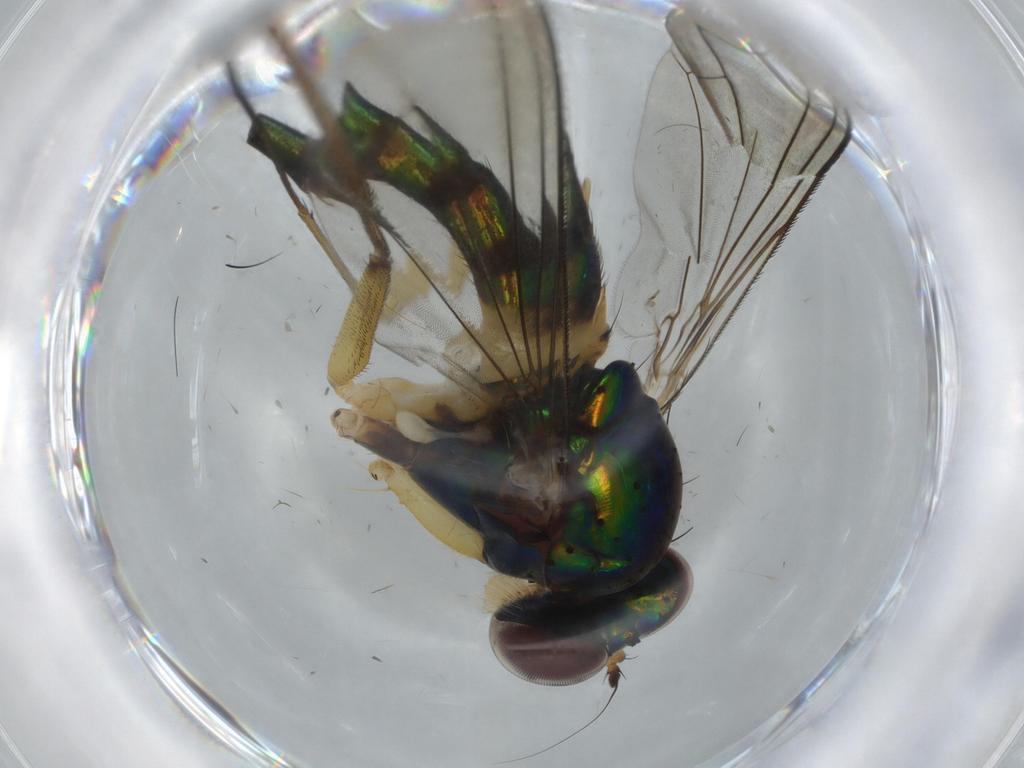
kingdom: Animalia
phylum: Arthropoda
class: Insecta
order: Diptera
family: Dolichopodidae
